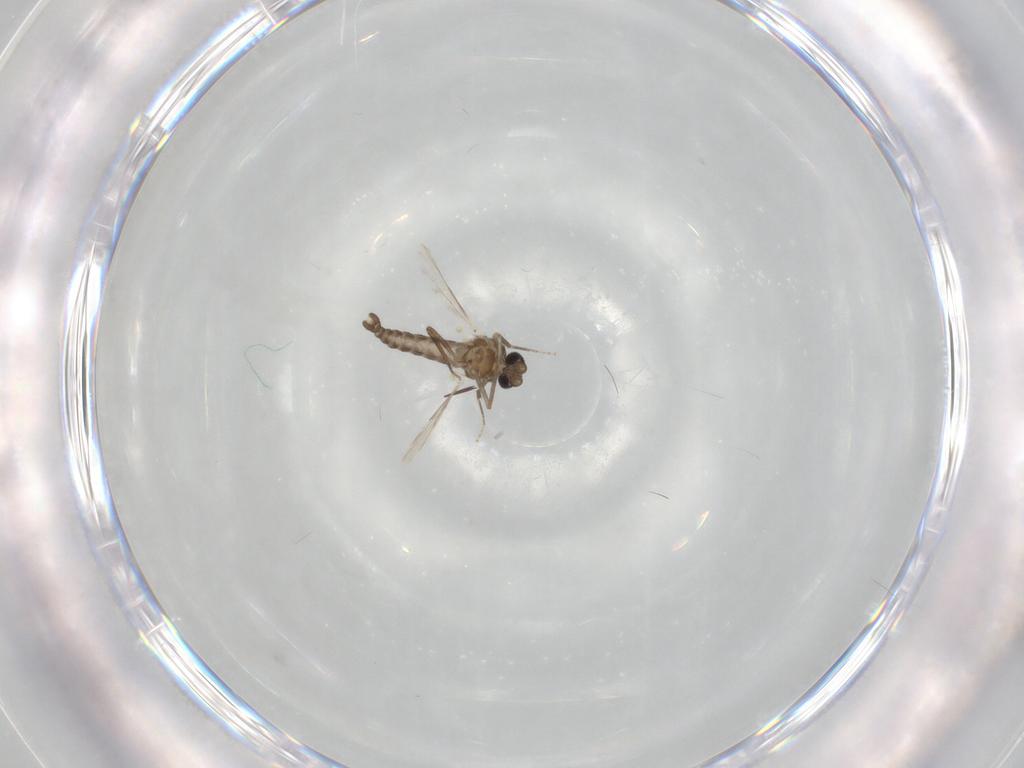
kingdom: Animalia
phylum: Arthropoda
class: Insecta
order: Diptera
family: Ceratopogonidae
